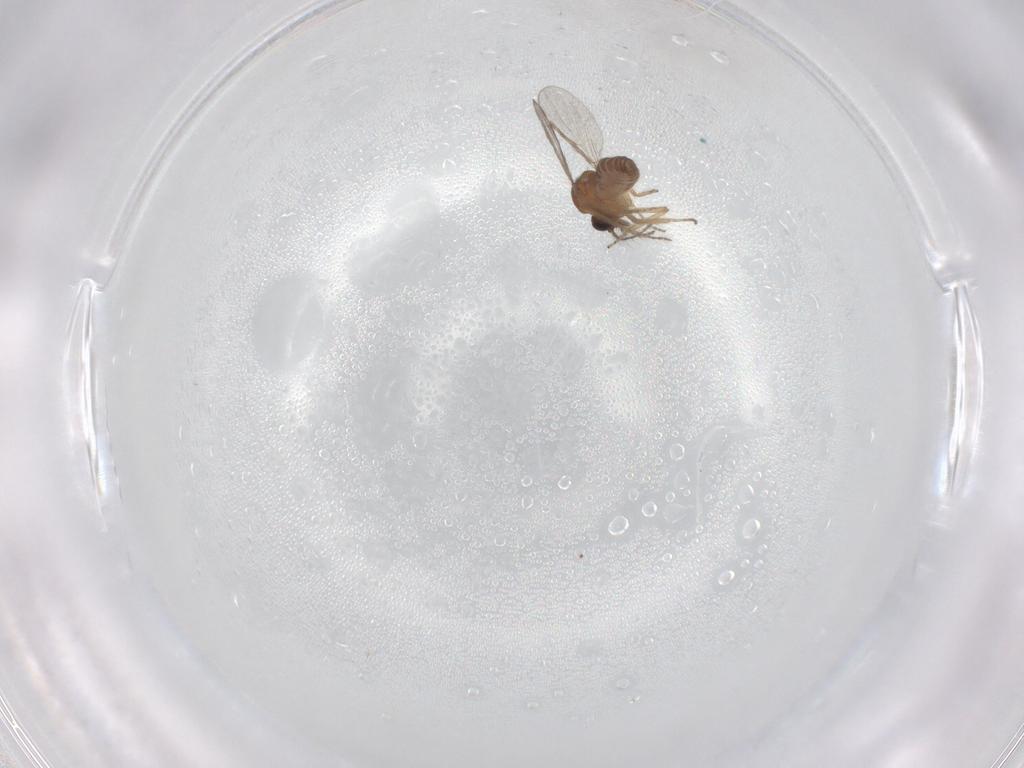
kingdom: Animalia
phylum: Arthropoda
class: Insecta
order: Diptera
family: Ceratopogonidae
